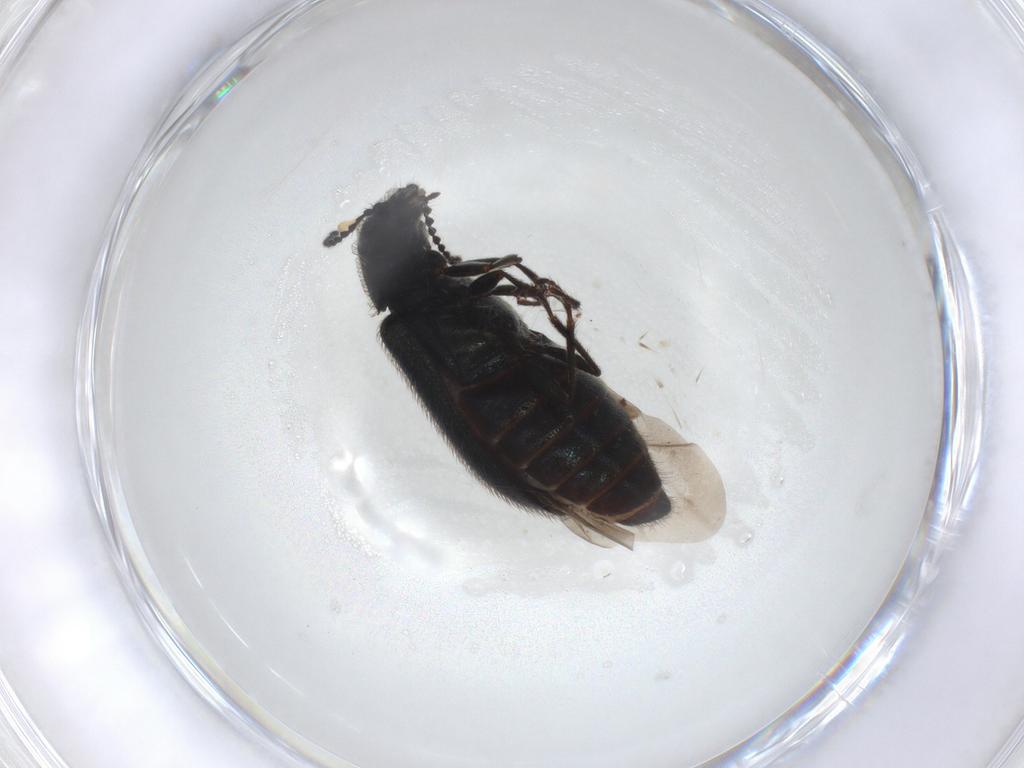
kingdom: Animalia
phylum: Arthropoda
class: Insecta
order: Coleoptera
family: Melyridae
